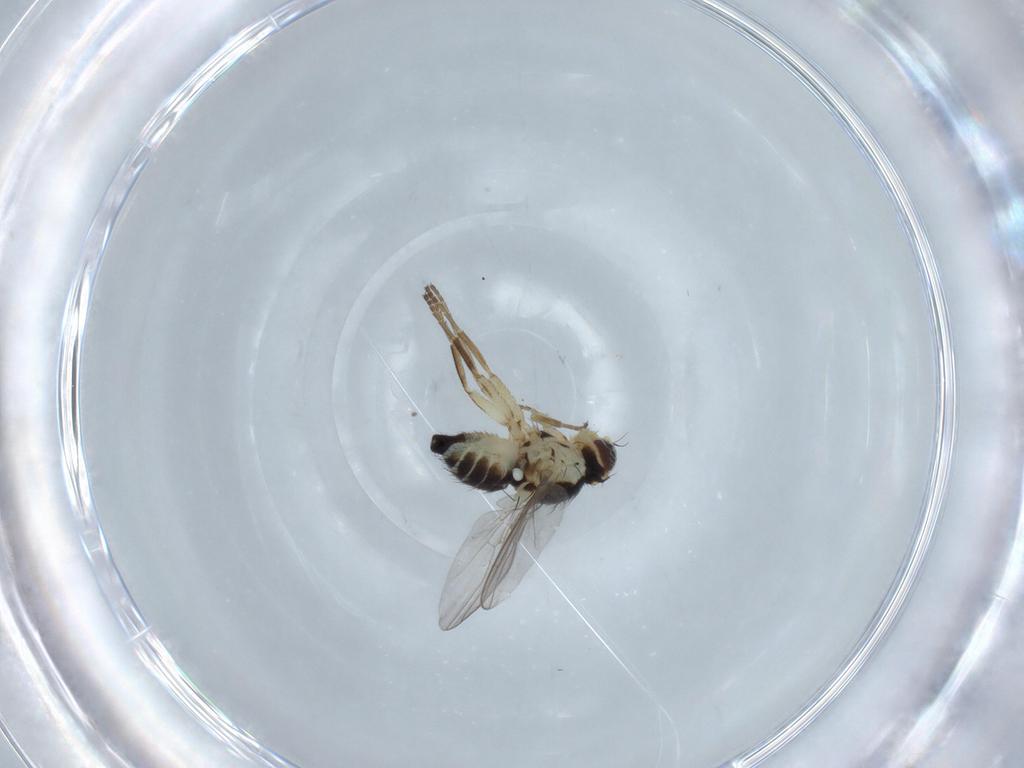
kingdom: Animalia
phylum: Arthropoda
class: Insecta
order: Diptera
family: Agromyzidae
